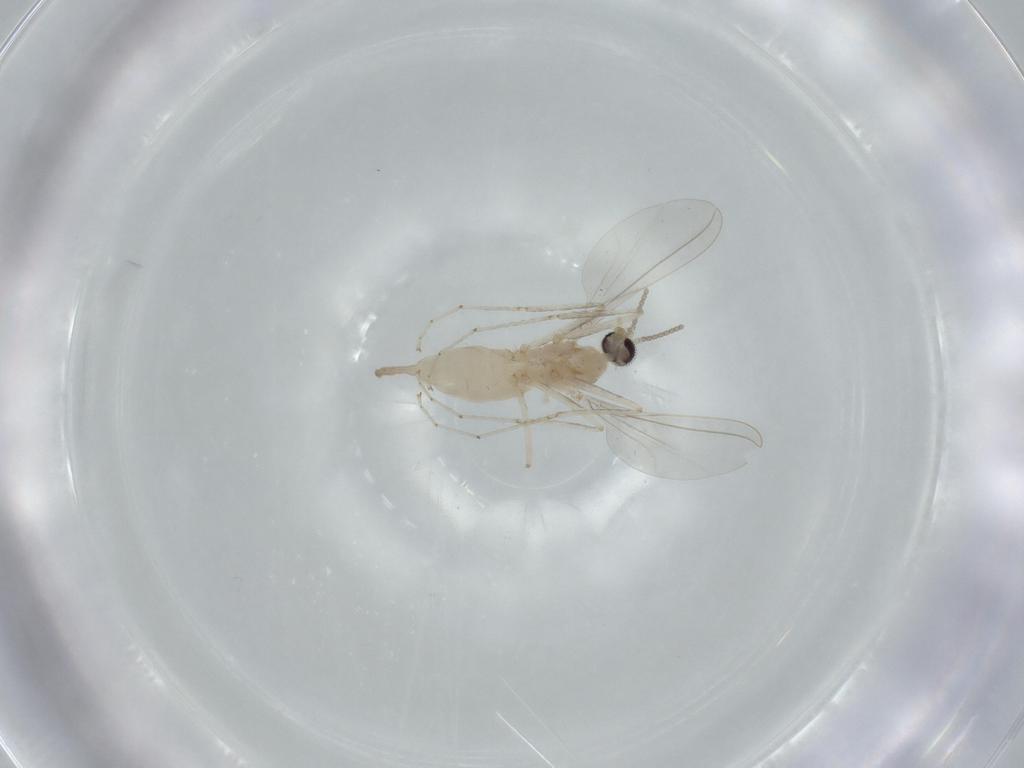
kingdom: Animalia
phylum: Arthropoda
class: Insecta
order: Diptera
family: Cecidomyiidae
